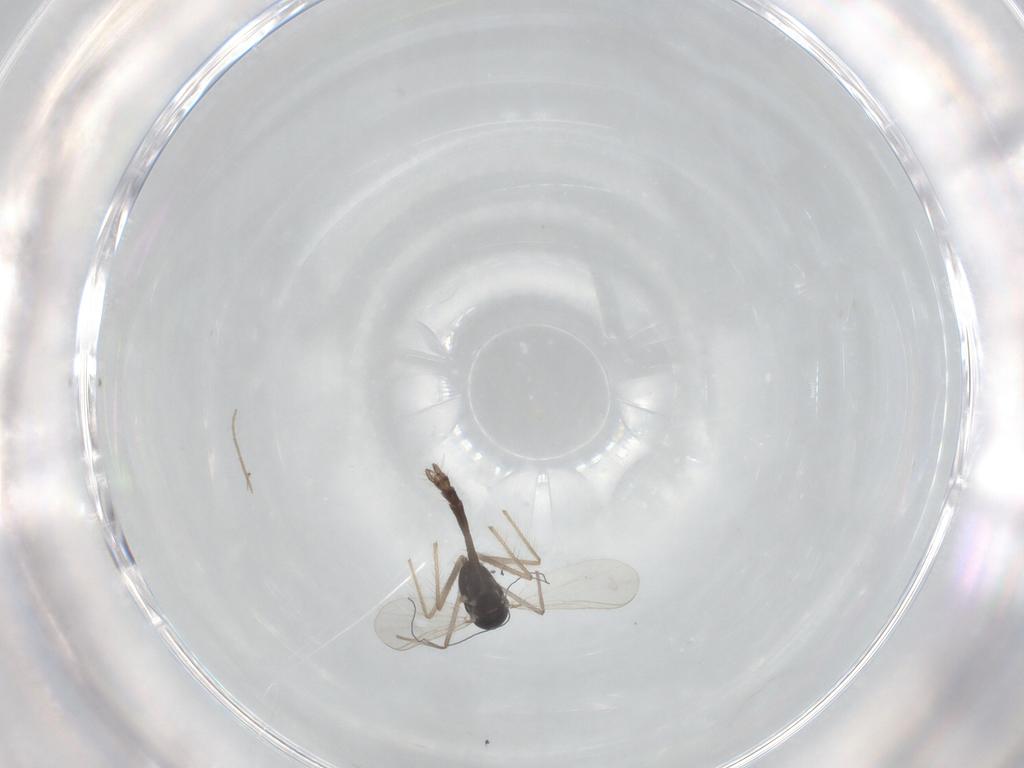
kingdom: Animalia
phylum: Arthropoda
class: Insecta
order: Diptera
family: Chironomidae
